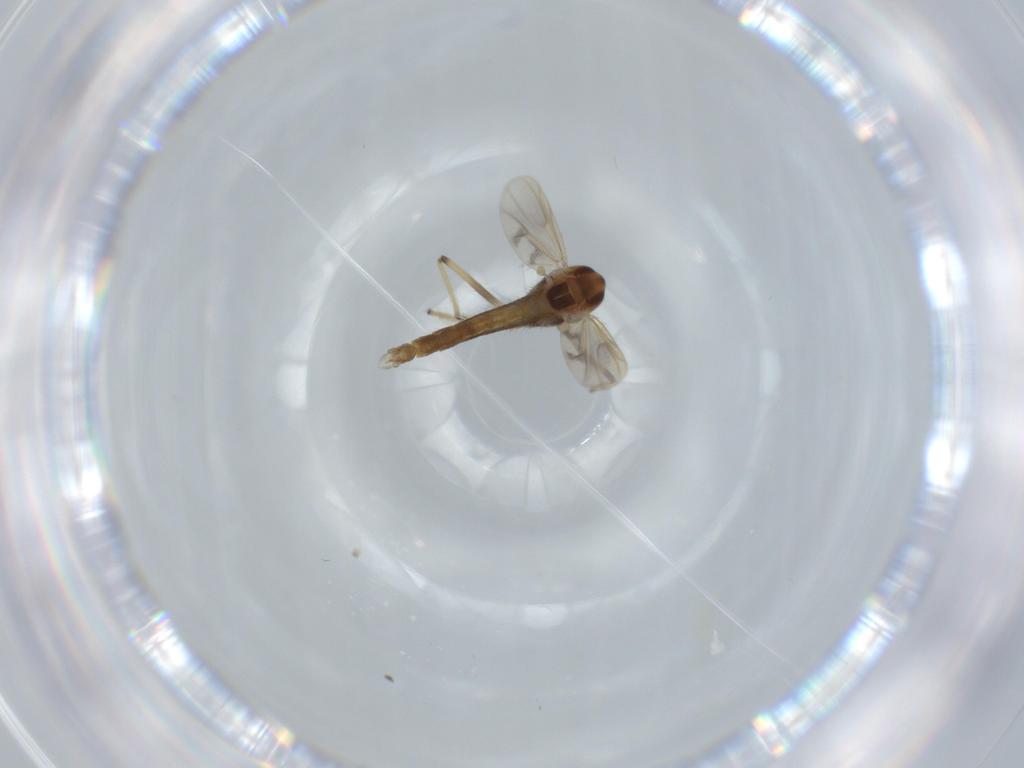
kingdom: Animalia
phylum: Arthropoda
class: Insecta
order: Diptera
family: Chironomidae
